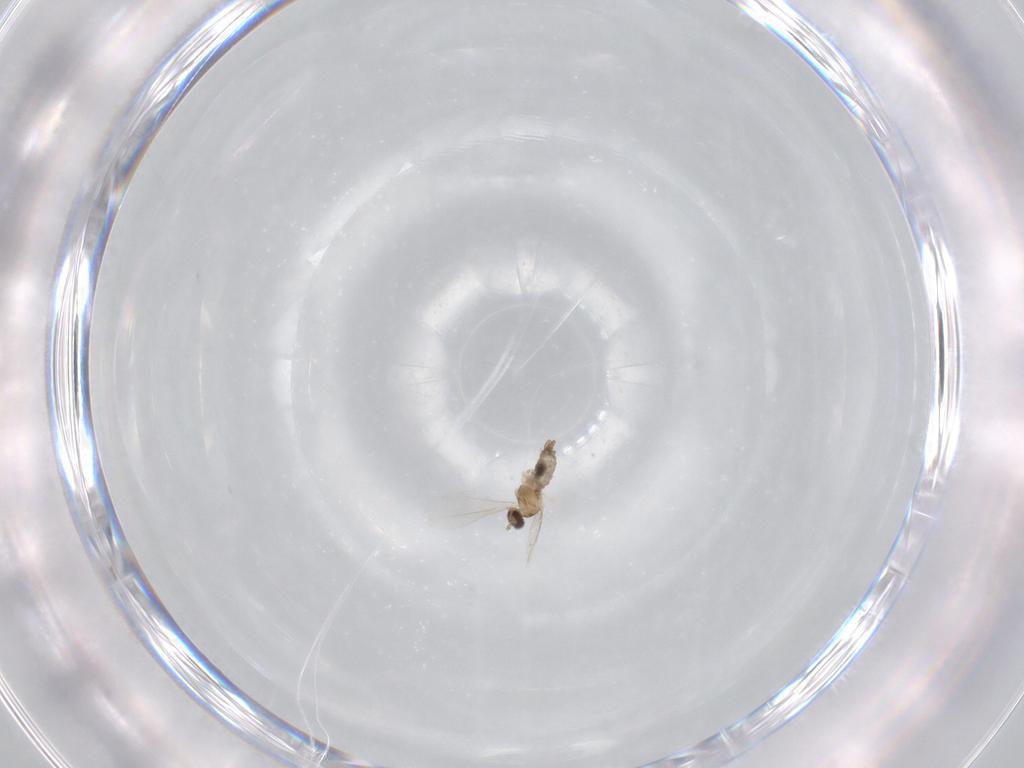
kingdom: Animalia
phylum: Arthropoda
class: Insecta
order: Diptera
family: Cecidomyiidae
